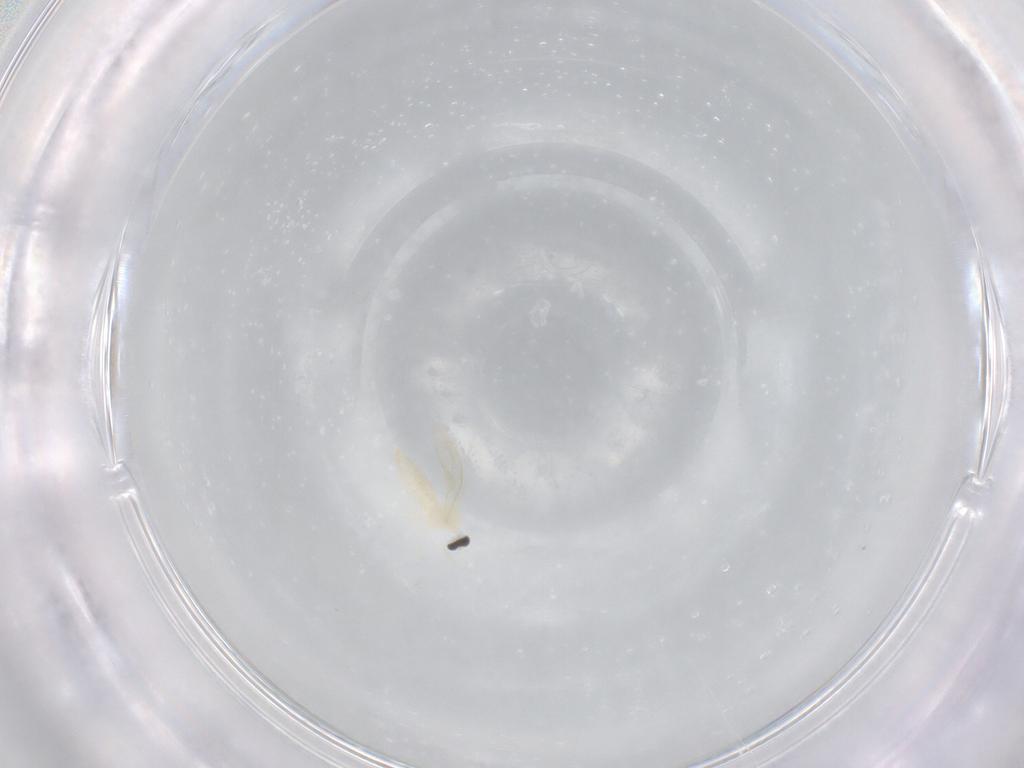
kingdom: Animalia
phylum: Arthropoda
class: Insecta
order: Diptera
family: Cecidomyiidae
